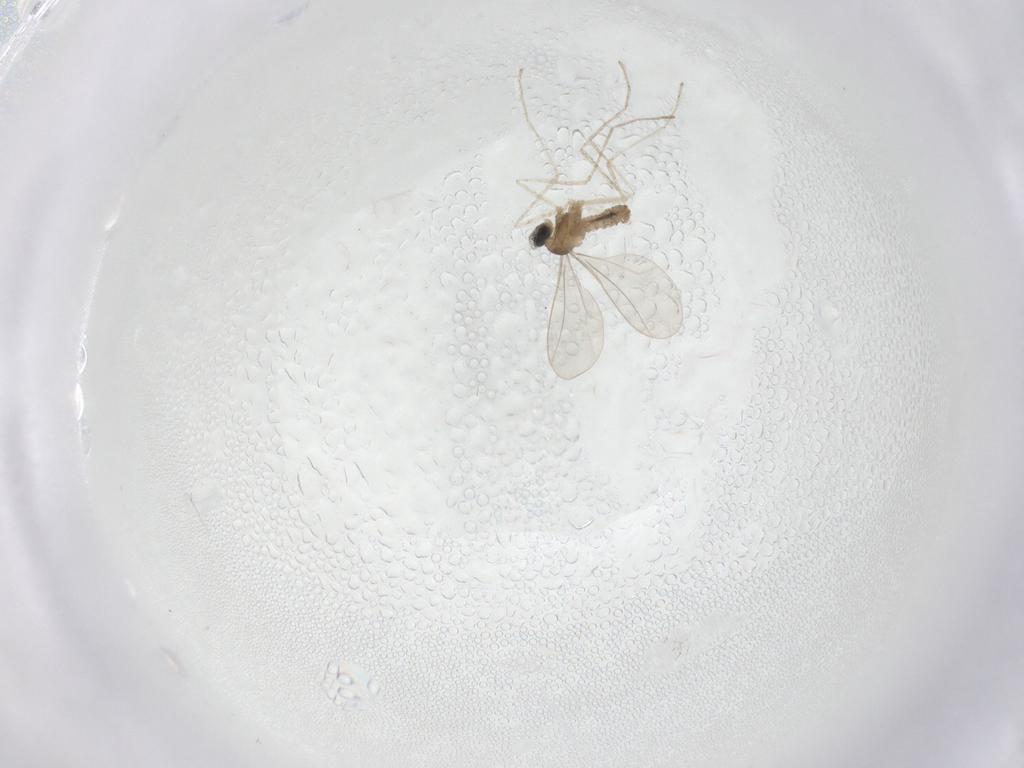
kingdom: Animalia
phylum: Arthropoda
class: Insecta
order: Diptera
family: Cecidomyiidae
